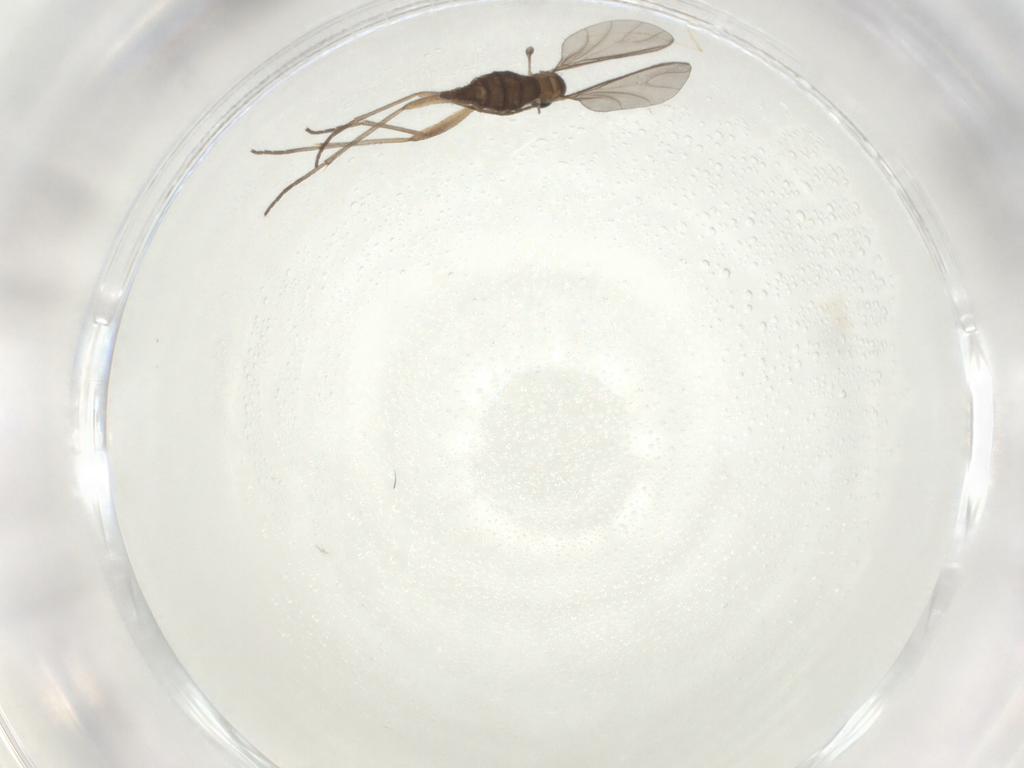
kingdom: Animalia
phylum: Arthropoda
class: Insecta
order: Diptera
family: Sciaridae
